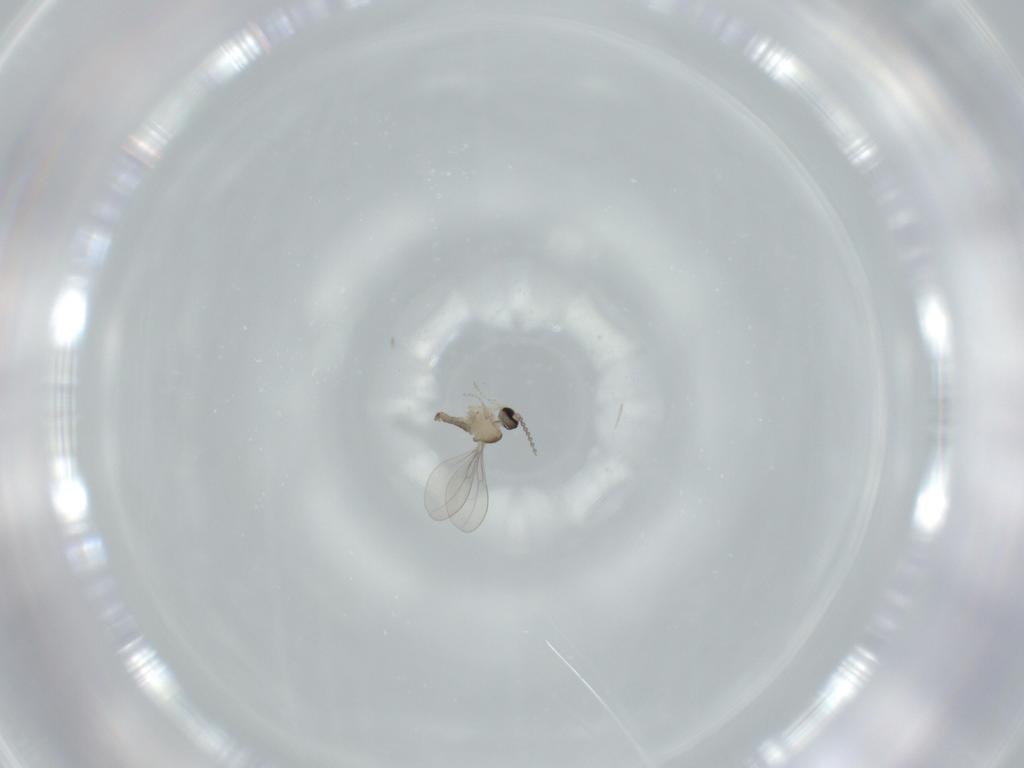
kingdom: Animalia
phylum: Arthropoda
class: Insecta
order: Diptera
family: Cecidomyiidae
